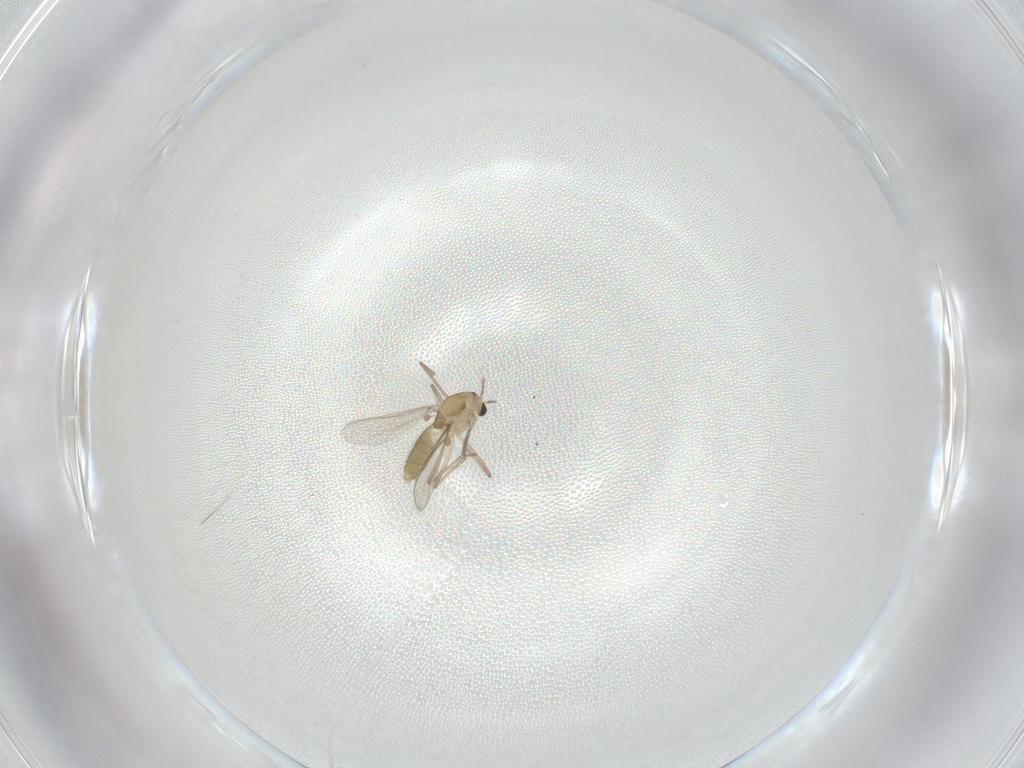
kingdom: Animalia
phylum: Arthropoda
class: Insecta
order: Diptera
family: Chironomidae
